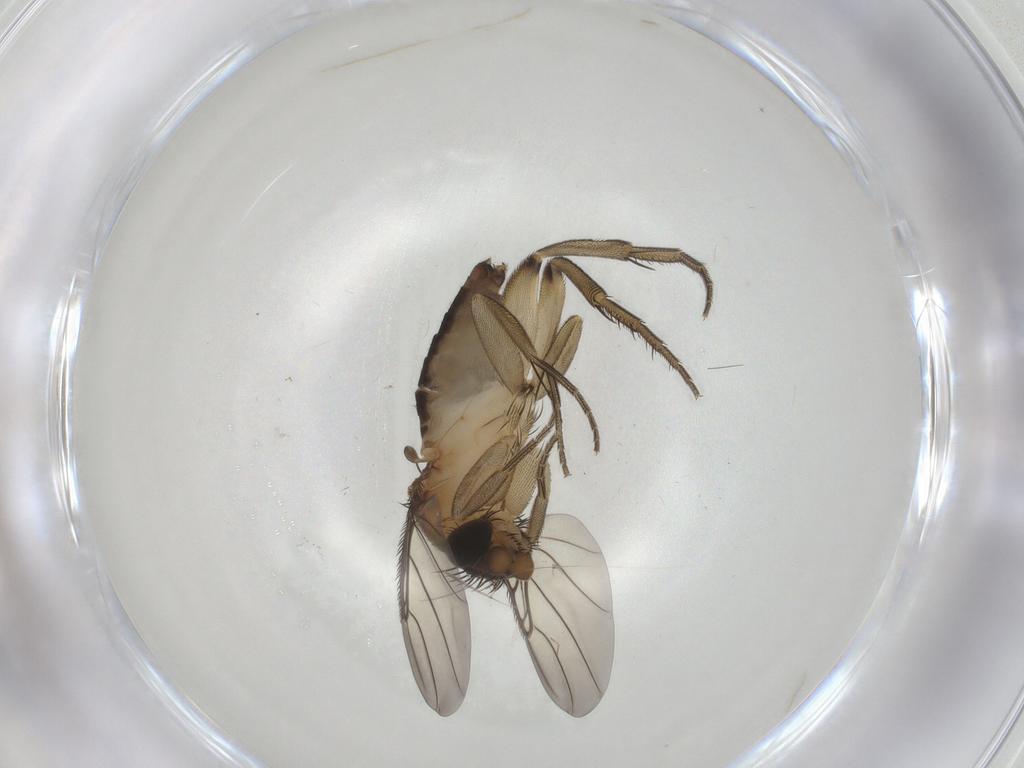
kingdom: Animalia
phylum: Arthropoda
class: Insecta
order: Diptera
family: Phoridae
